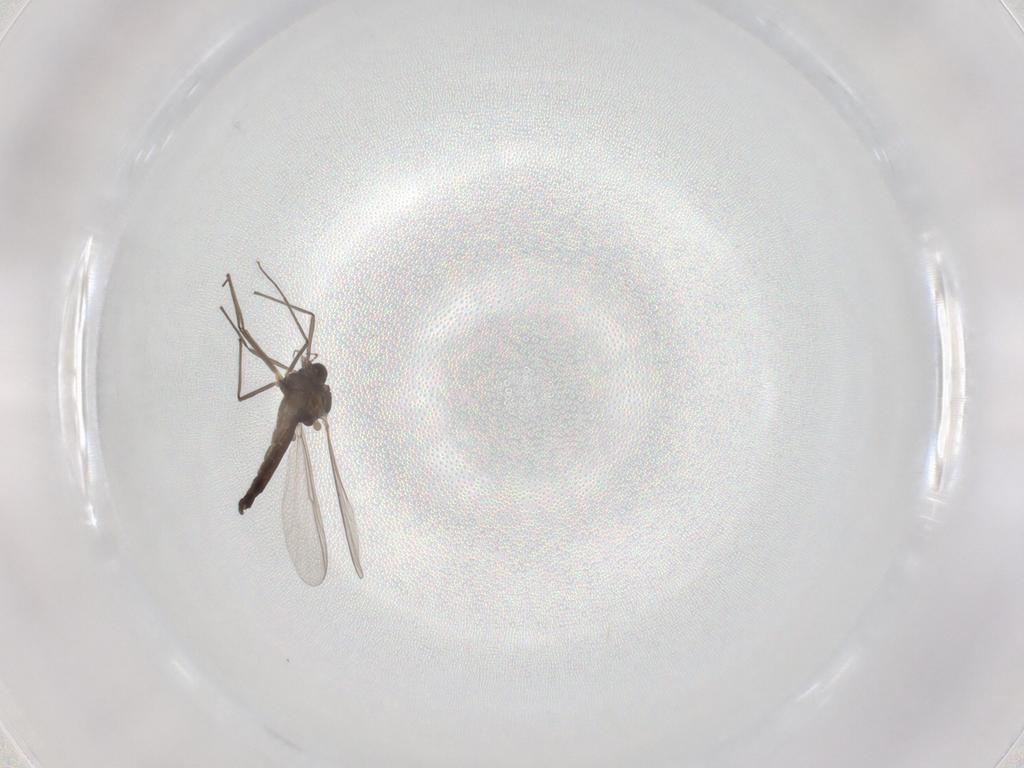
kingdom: Animalia
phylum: Arthropoda
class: Insecta
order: Diptera
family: Chironomidae
